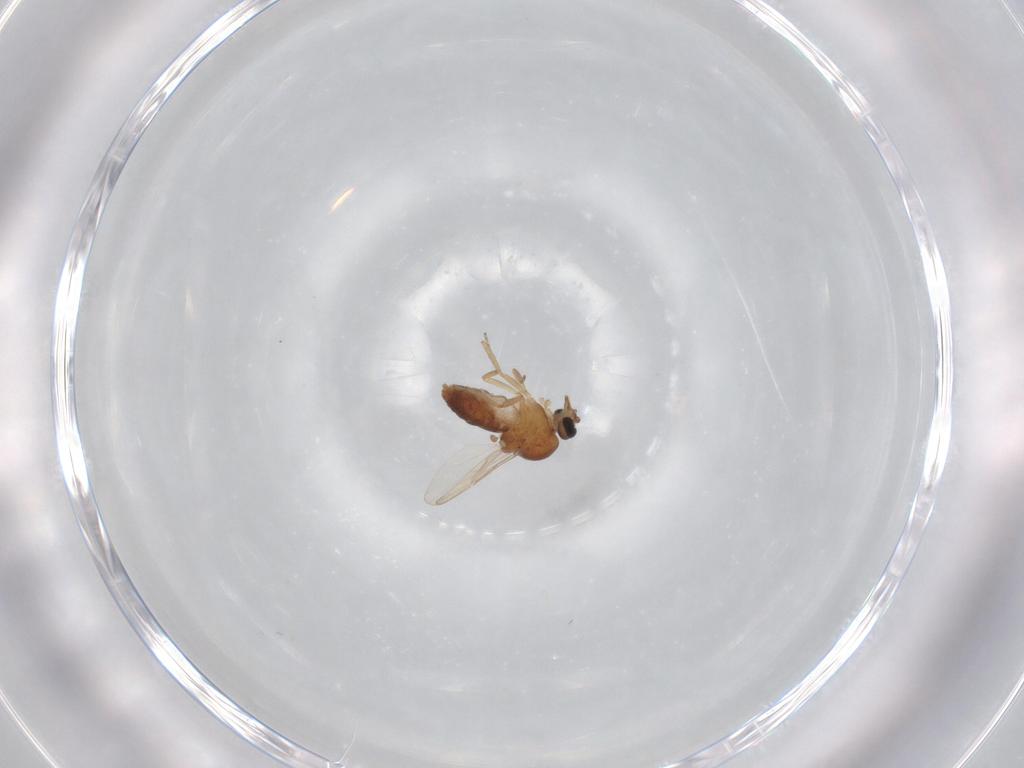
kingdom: Animalia
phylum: Arthropoda
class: Insecta
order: Diptera
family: Ceratopogonidae
